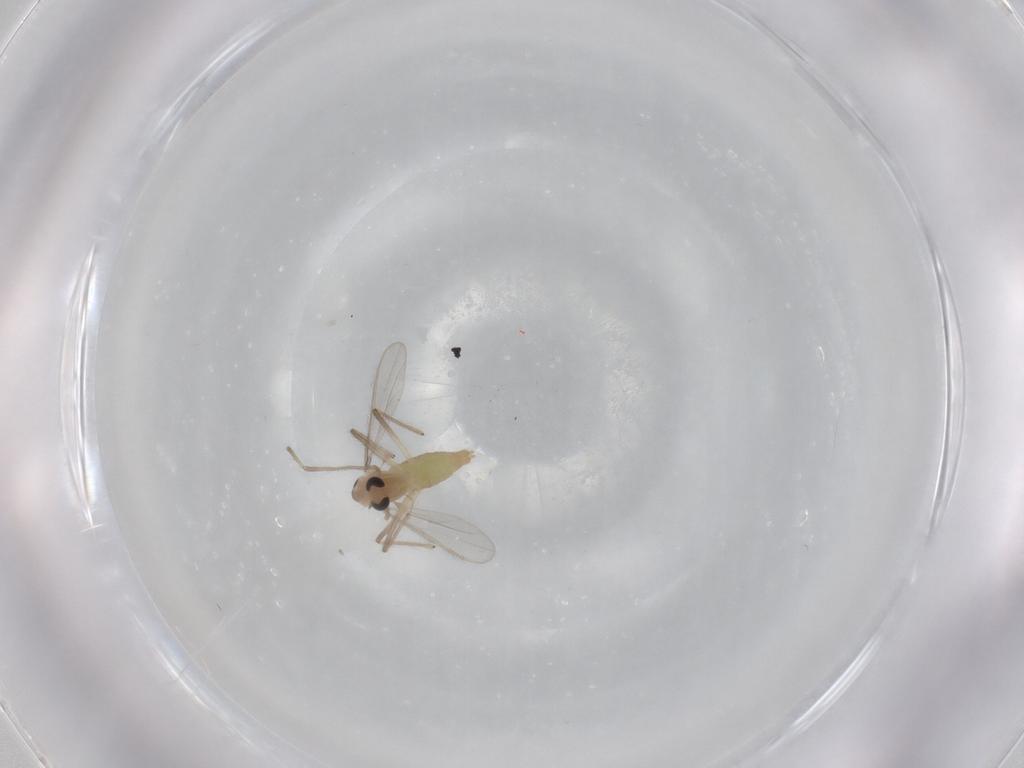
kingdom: Animalia
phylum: Arthropoda
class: Insecta
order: Diptera
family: Chironomidae
